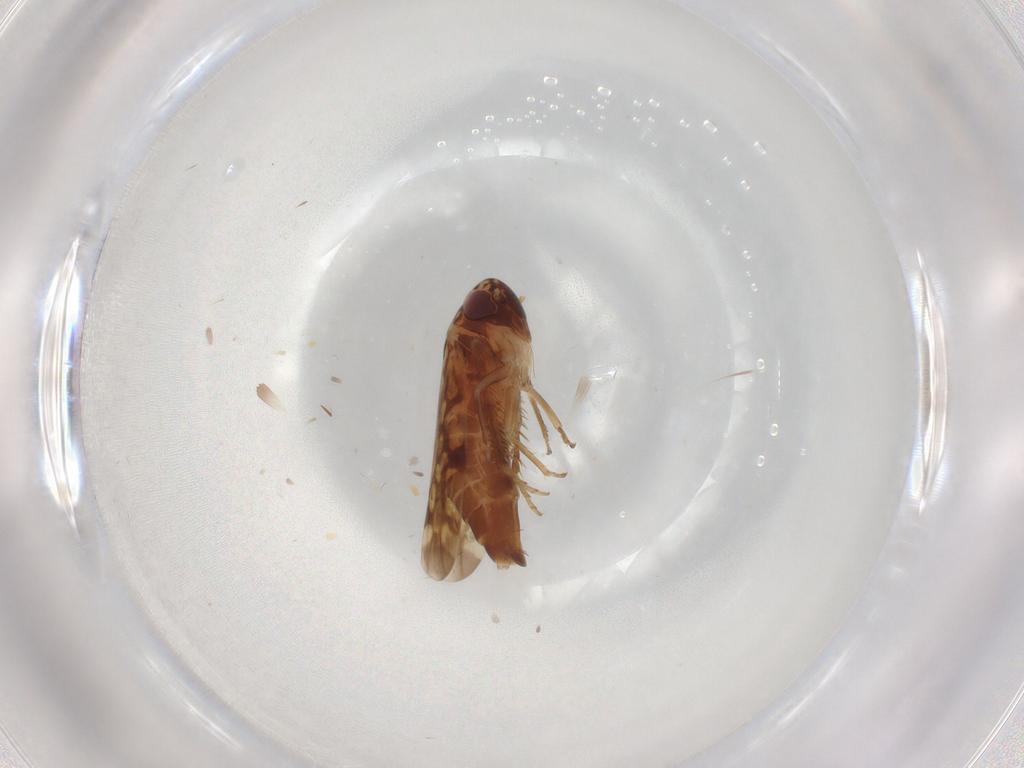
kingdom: Animalia
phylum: Arthropoda
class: Insecta
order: Hemiptera
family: Cicadellidae
